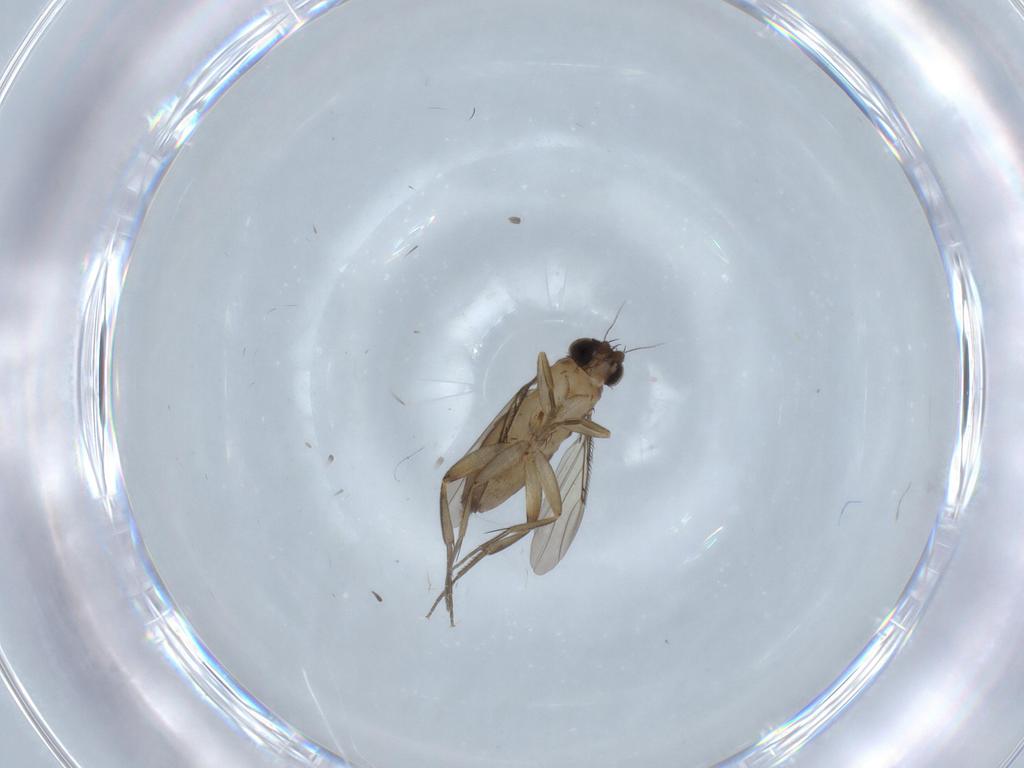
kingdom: Animalia
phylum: Arthropoda
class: Insecta
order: Diptera
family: Phoridae
